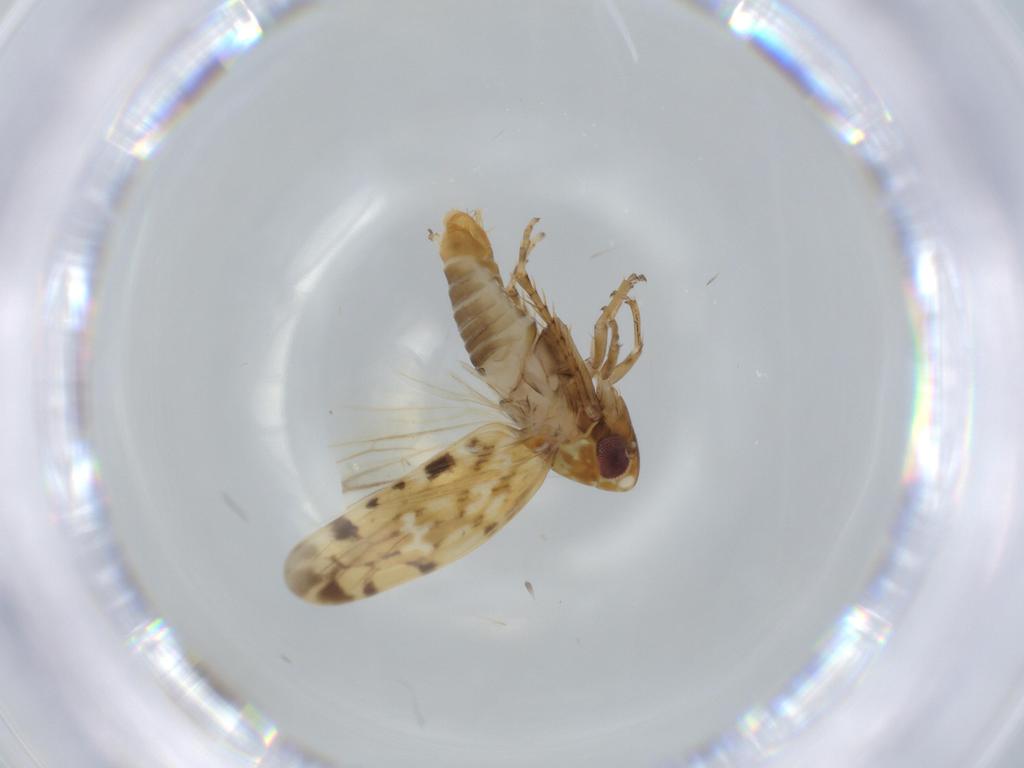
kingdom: Animalia
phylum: Arthropoda
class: Insecta
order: Hemiptera
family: Cicadellidae
